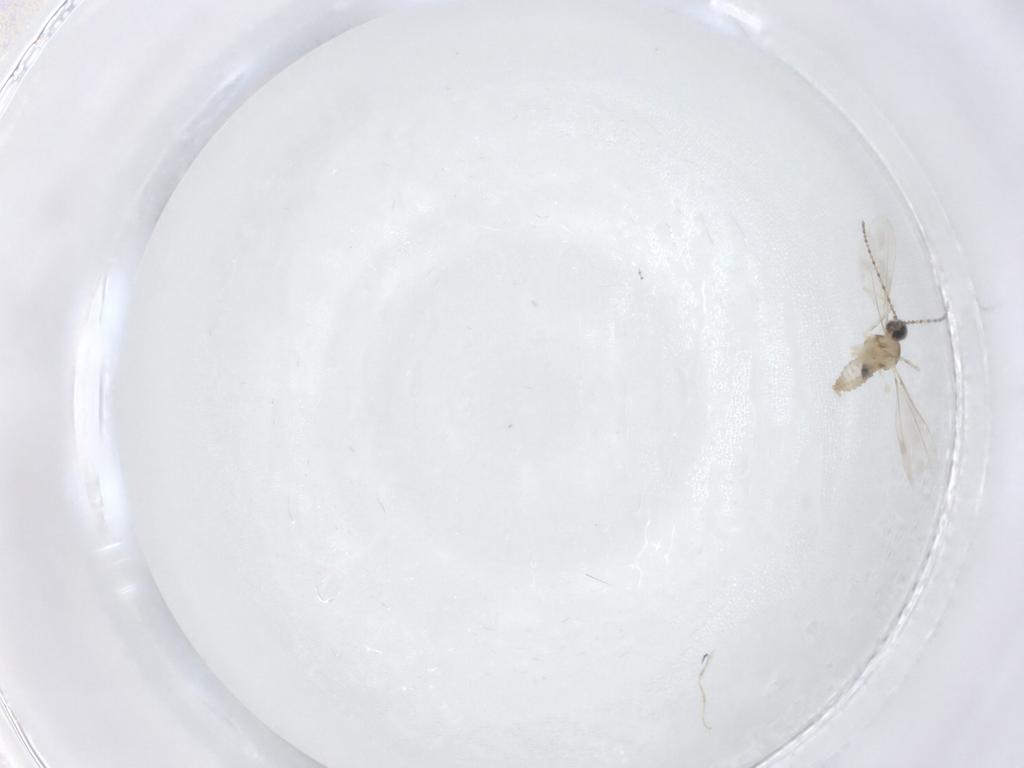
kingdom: Animalia
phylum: Arthropoda
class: Insecta
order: Diptera
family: Cecidomyiidae
